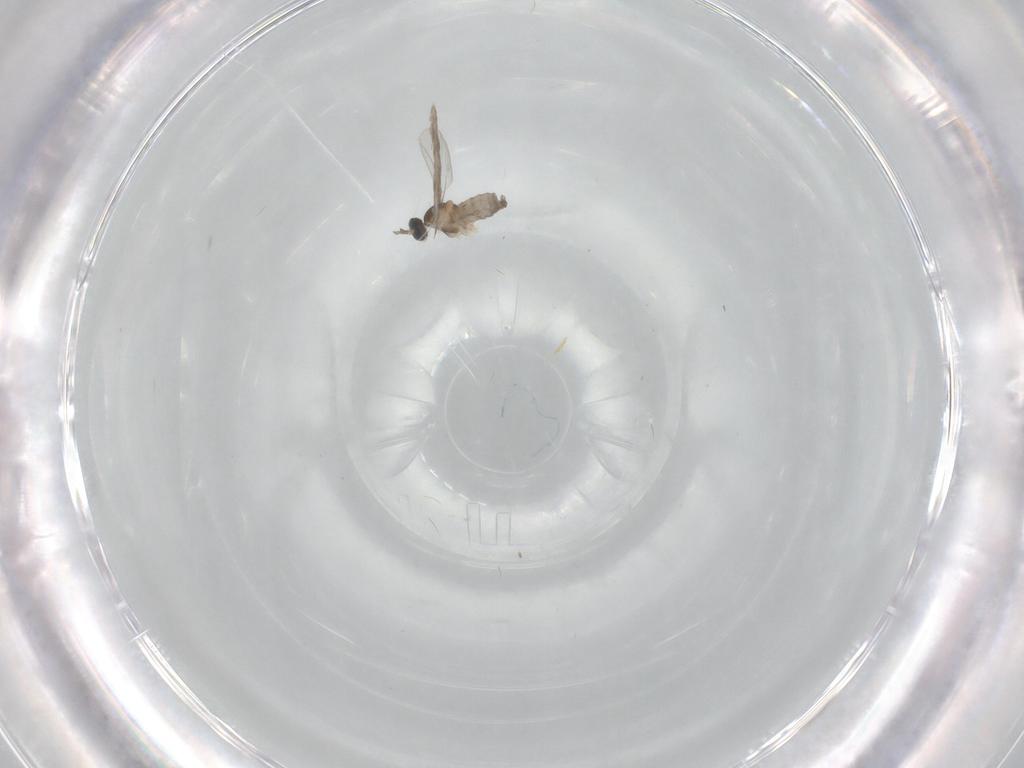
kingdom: Animalia
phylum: Arthropoda
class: Insecta
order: Diptera
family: Cecidomyiidae
